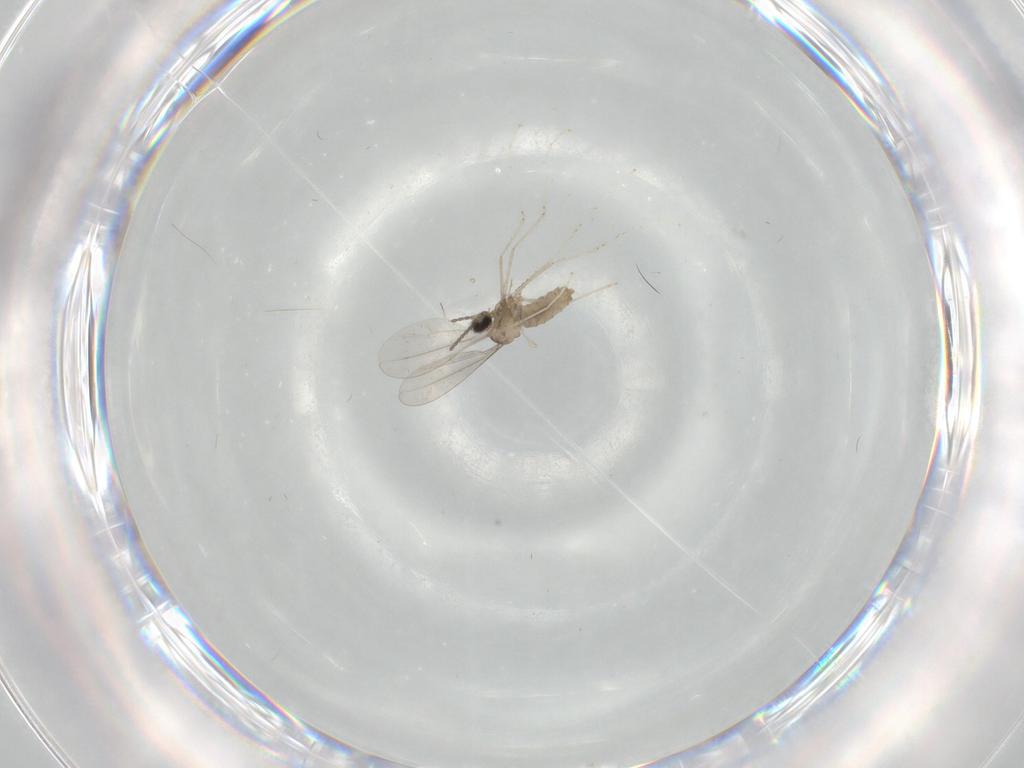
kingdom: Animalia
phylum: Arthropoda
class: Insecta
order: Diptera
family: Cecidomyiidae
